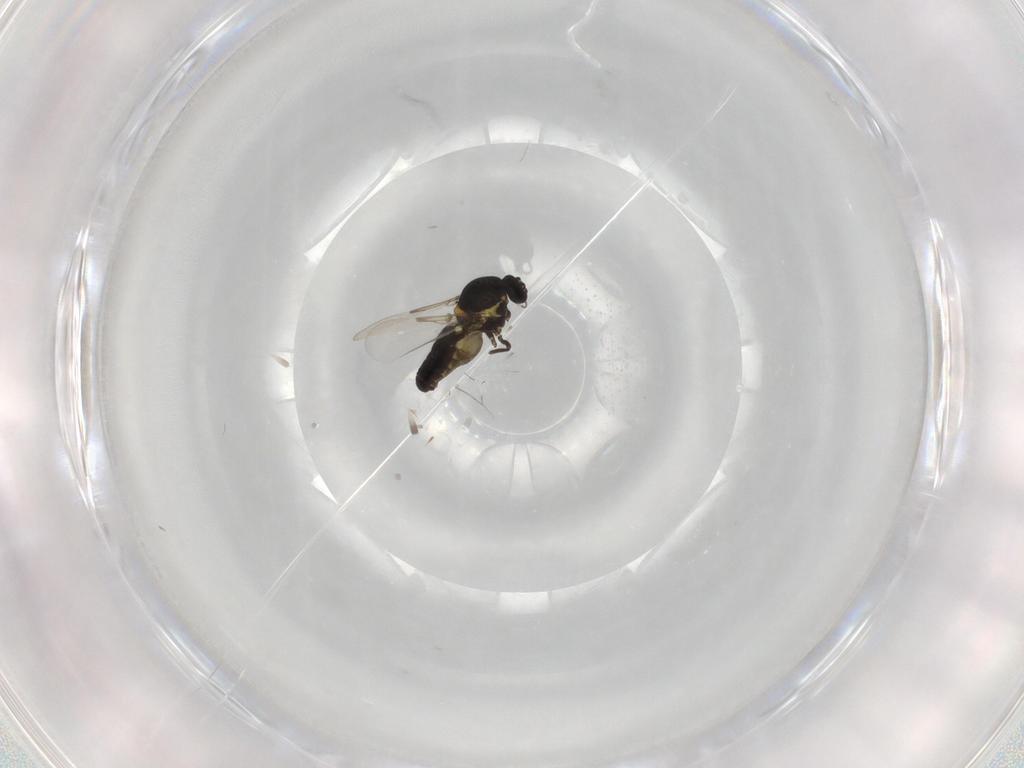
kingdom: Animalia
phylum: Arthropoda
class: Insecta
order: Diptera
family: Ceratopogonidae
